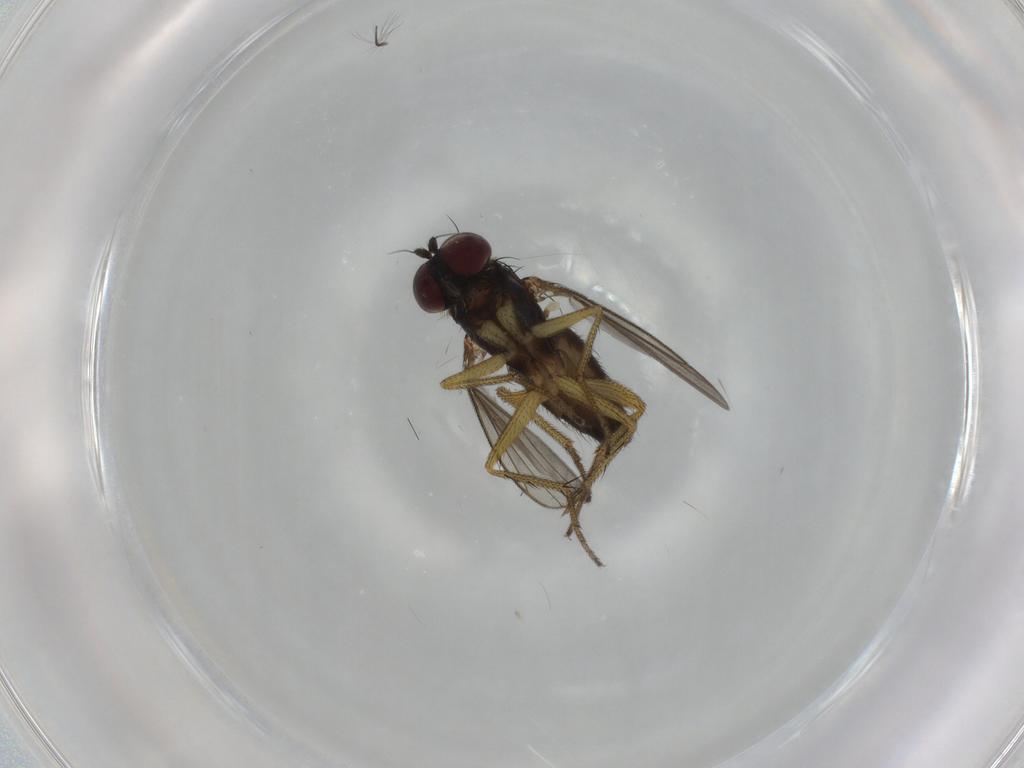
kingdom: Animalia
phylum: Arthropoda
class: Insecta
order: Diptera
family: Dolichopodidae
